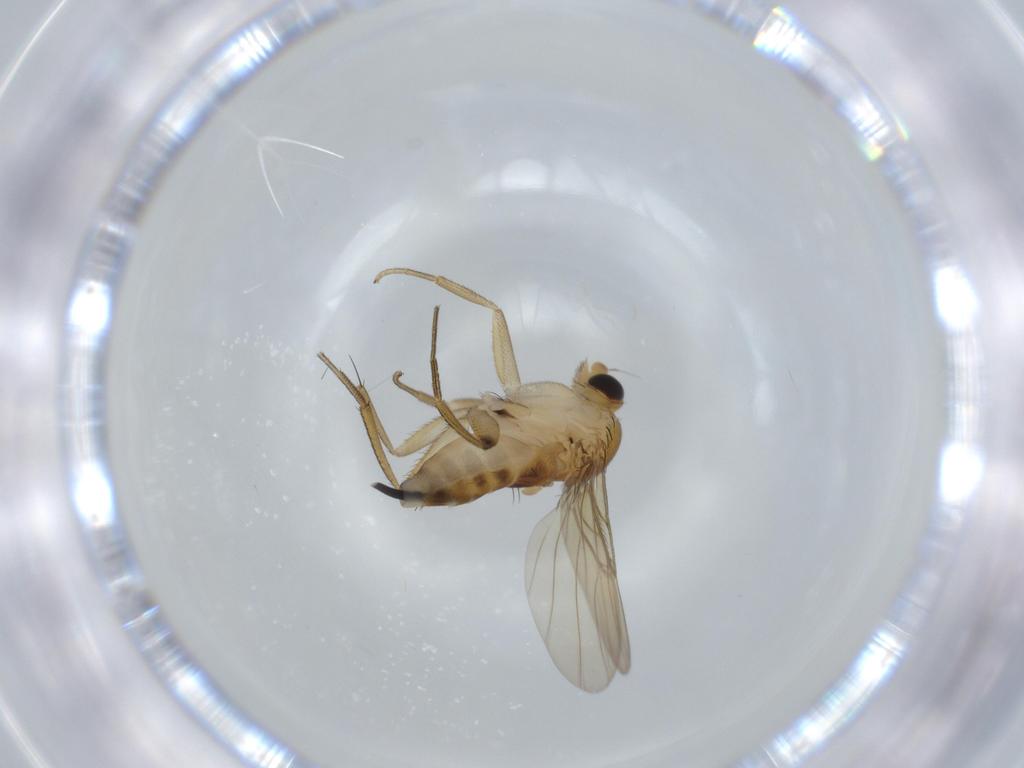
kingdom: Animalia
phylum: Arthropoda
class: Insecta
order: Diptera
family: Phoridae
